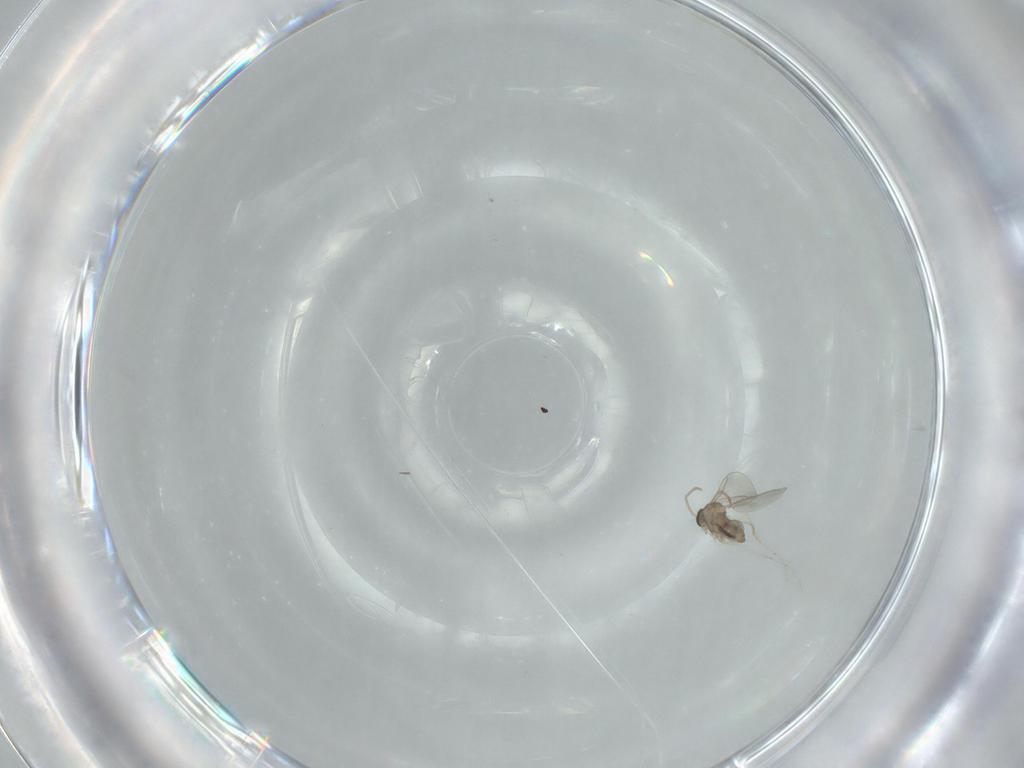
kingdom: Animalia
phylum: Arthropoda
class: Insecta
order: Diptera
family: Cecidomyiidae
